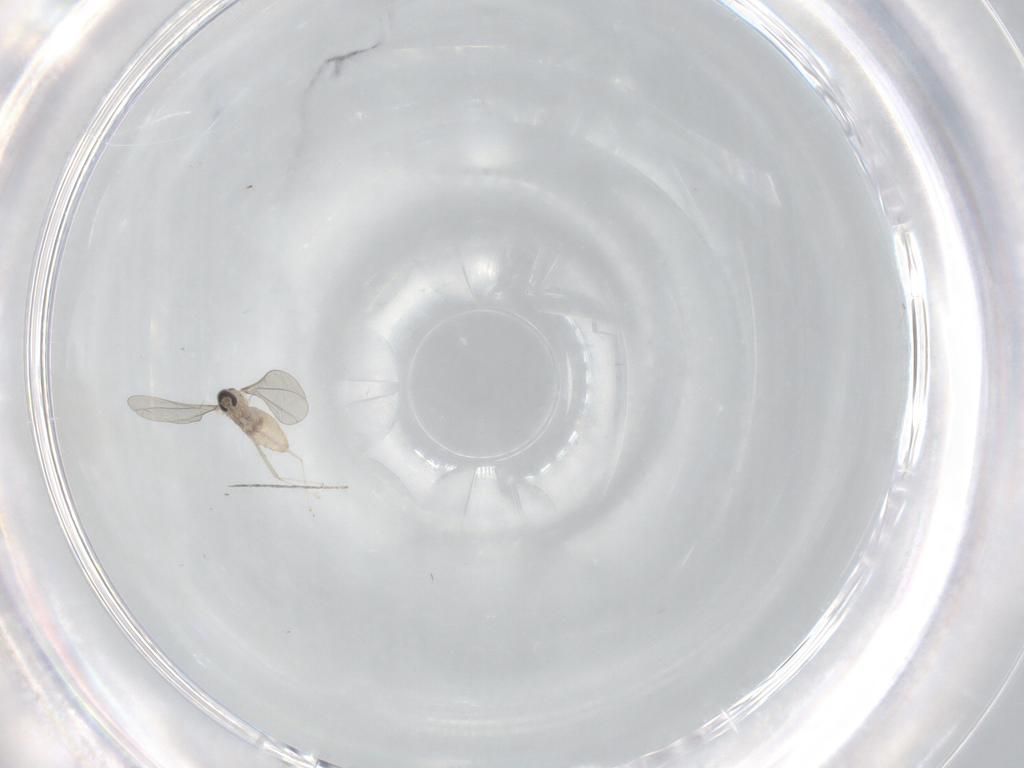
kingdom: Animalia
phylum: Arthropoda
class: Insecta
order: Diptera
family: Cecidomyiidae
